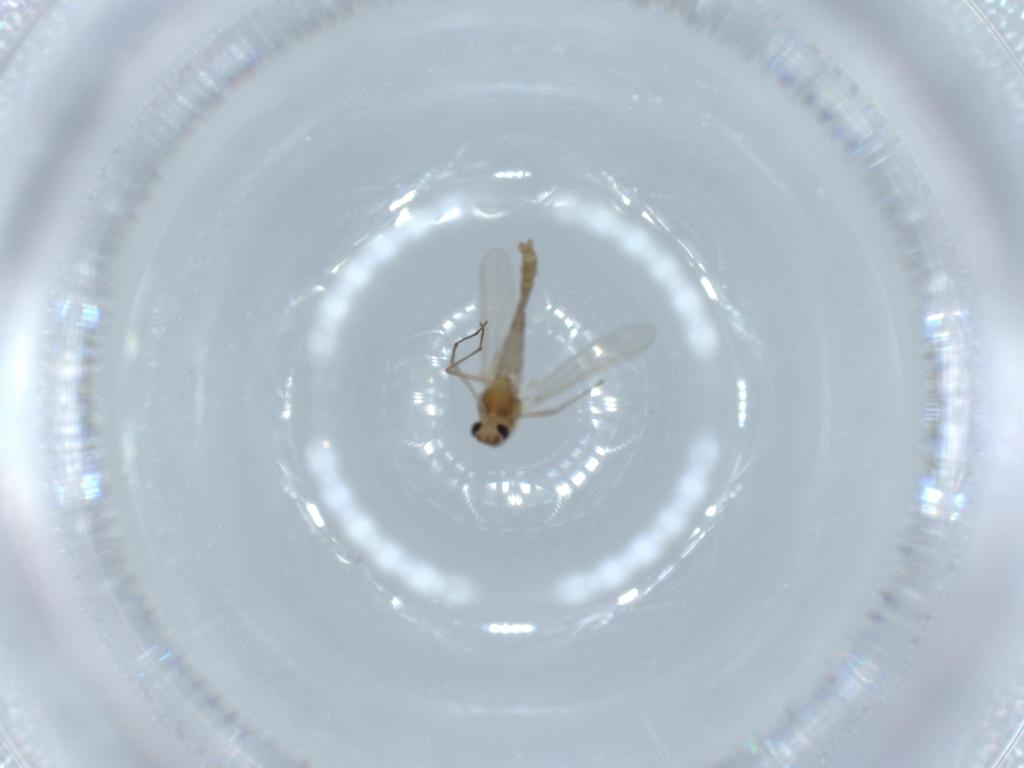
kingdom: Animalia
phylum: Arthropoda
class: Insecta
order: Diptera
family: Chironomidae
